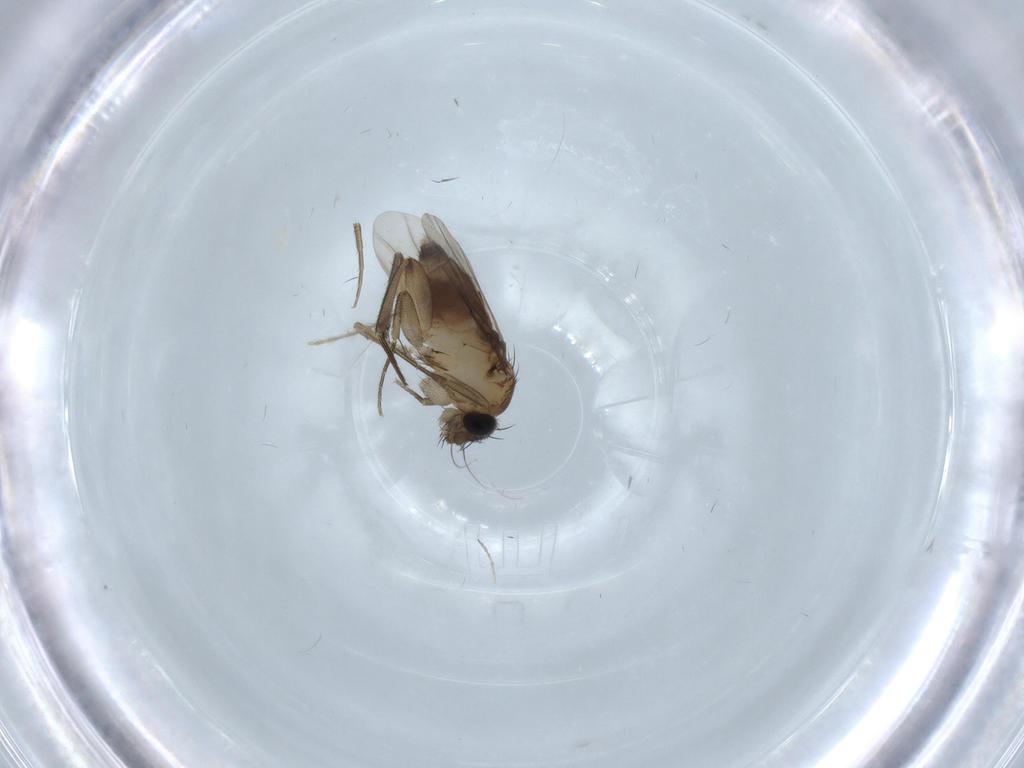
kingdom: Animalia
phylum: Arthropoda
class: Insecta
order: Diptera
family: Phoridae
